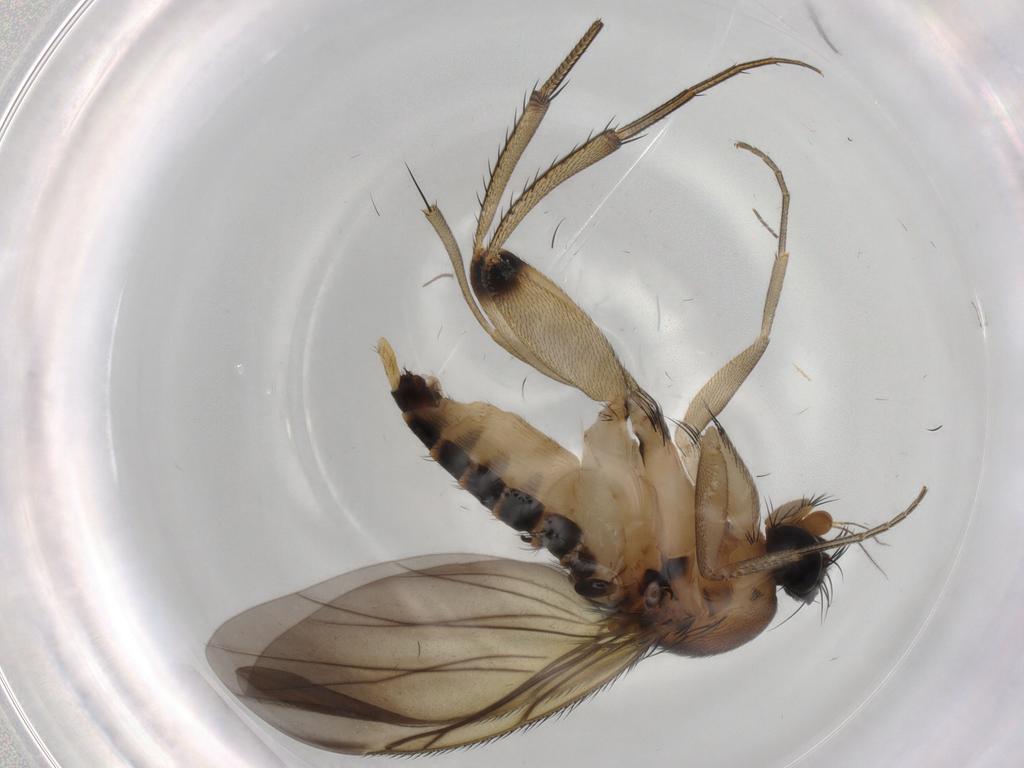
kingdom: Animalia
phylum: Arthropoda
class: Insecta
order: Diptera
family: Phoridae
